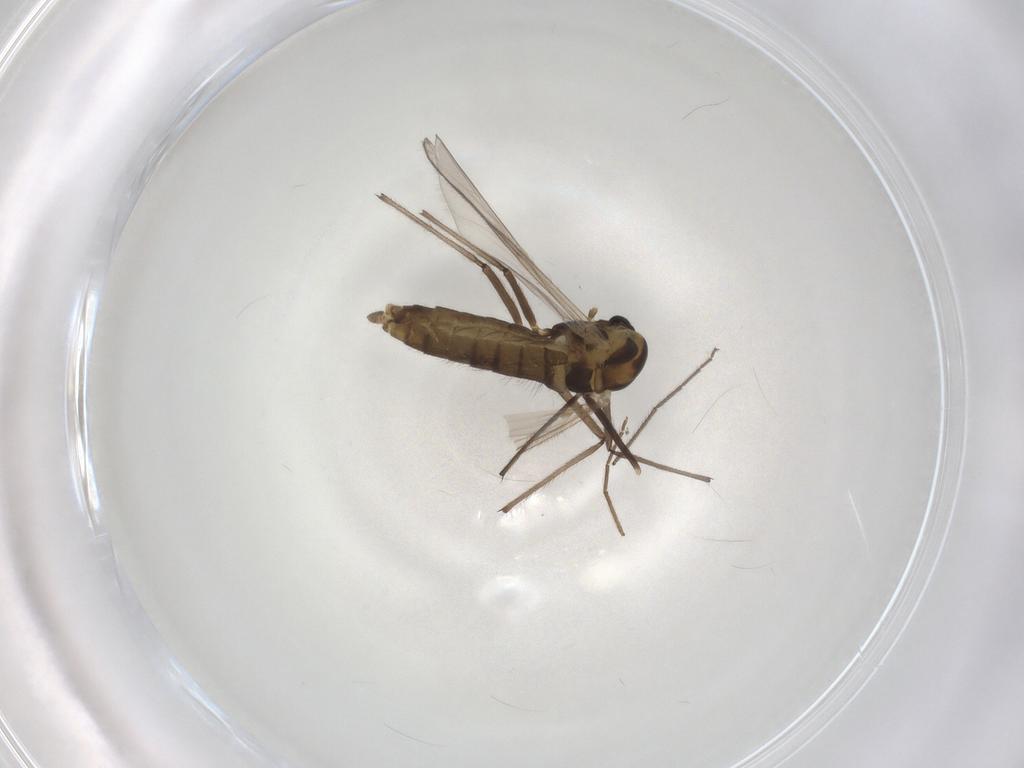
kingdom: Animalia
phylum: Arthropoda
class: Insecta
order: Diptera
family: Chironomidae
